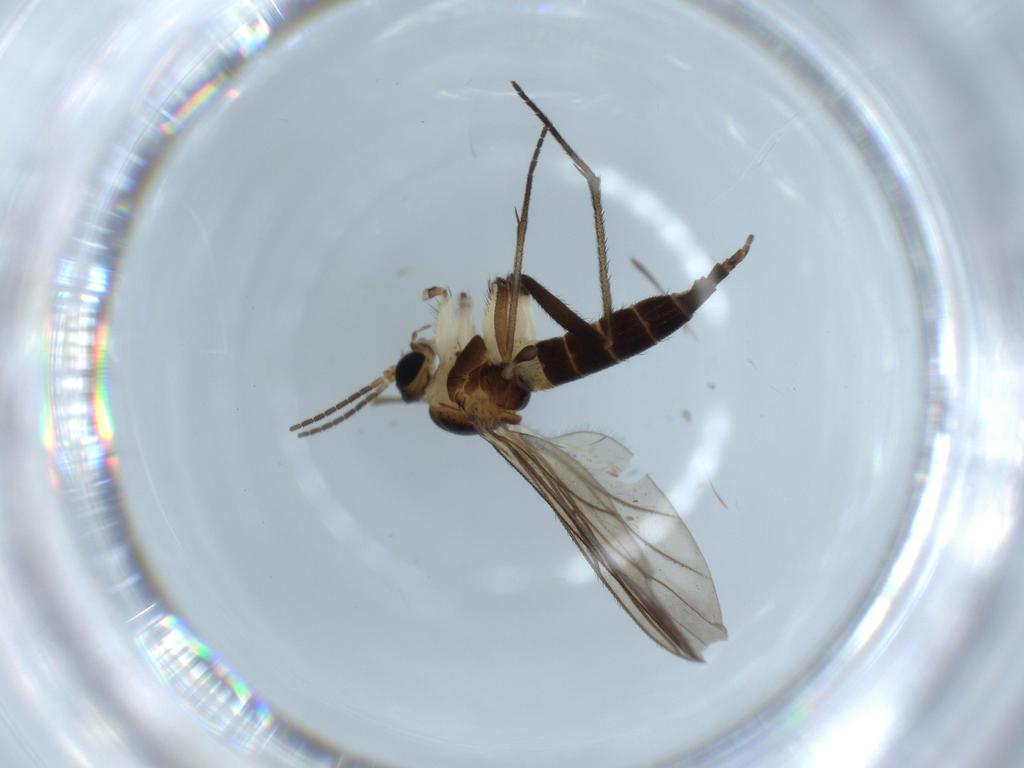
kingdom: Animalia
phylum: Arthropoda
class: Insecta
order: Diptera
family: Sciaridae
